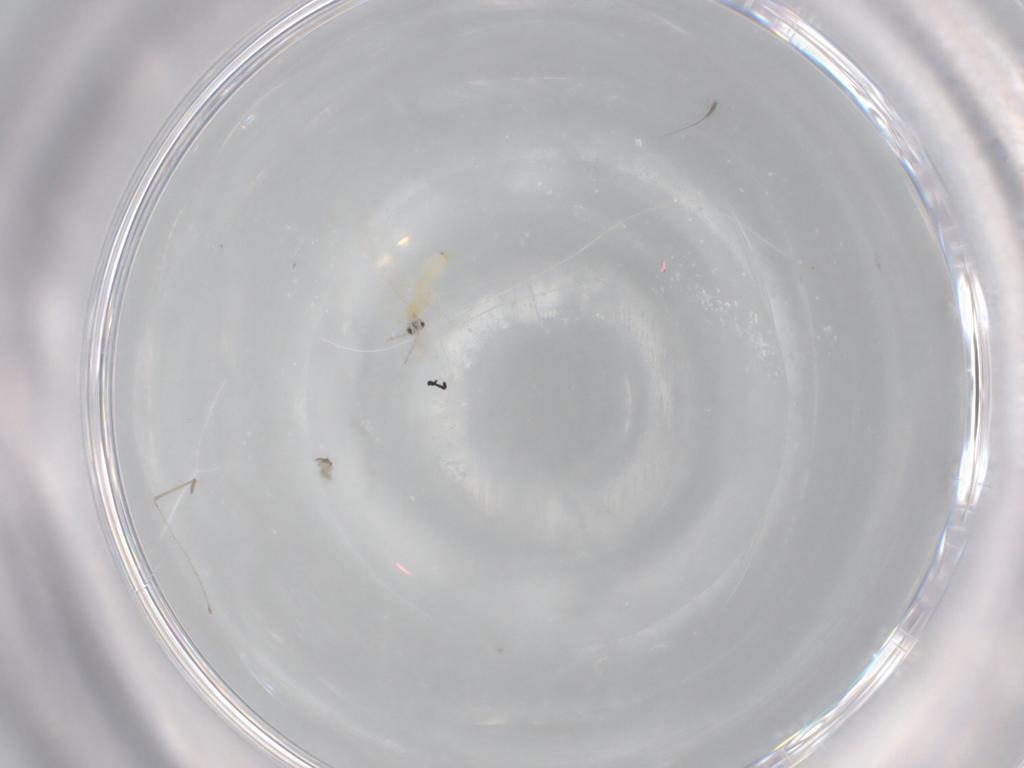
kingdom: Animalia
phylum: Arthropoda
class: Insecta
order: Diptera
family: Cecidomyiidae
